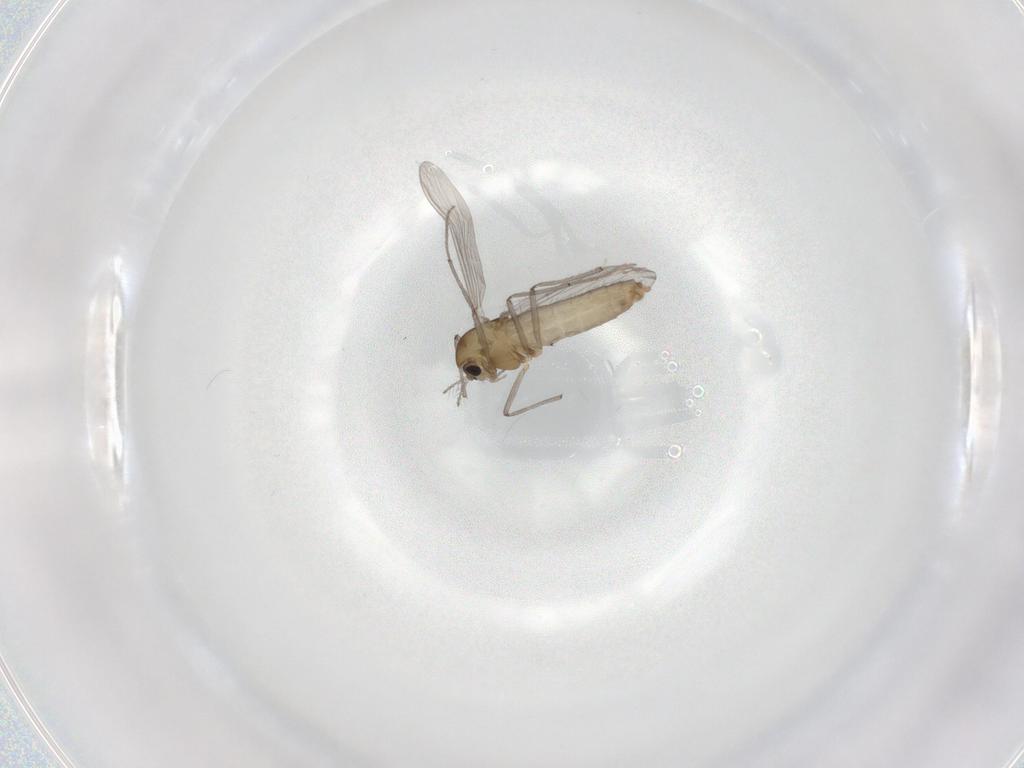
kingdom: Animalia
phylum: Arthropoda
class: Insecta
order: Diptera
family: Chironomidae
